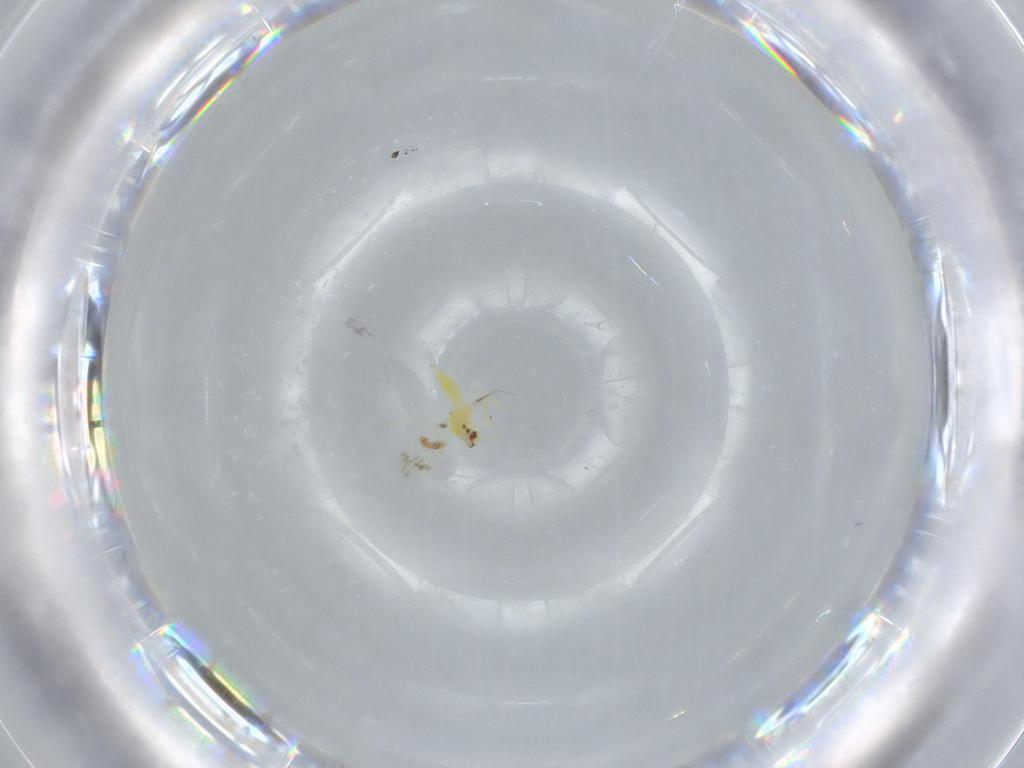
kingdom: Animalia
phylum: Arthropoda
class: Insecta
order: Hemiptera
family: Aleyrodidae
